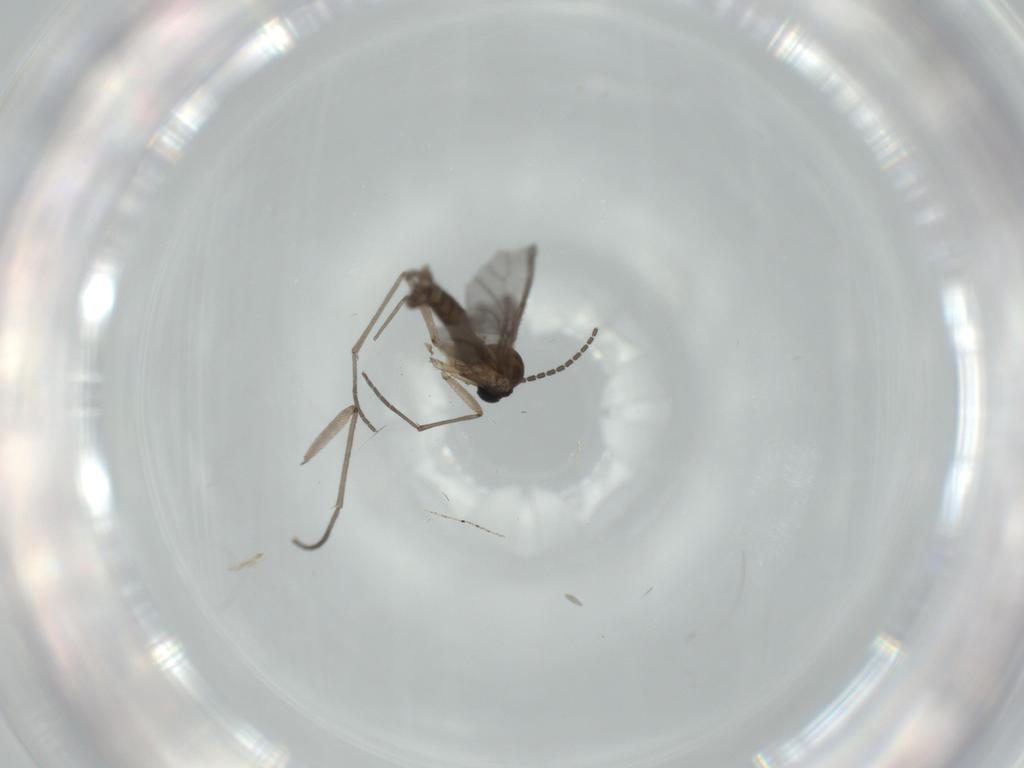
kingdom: Animalia
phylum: Arthropoda
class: Insecta
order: Diptera
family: Sciaridae
